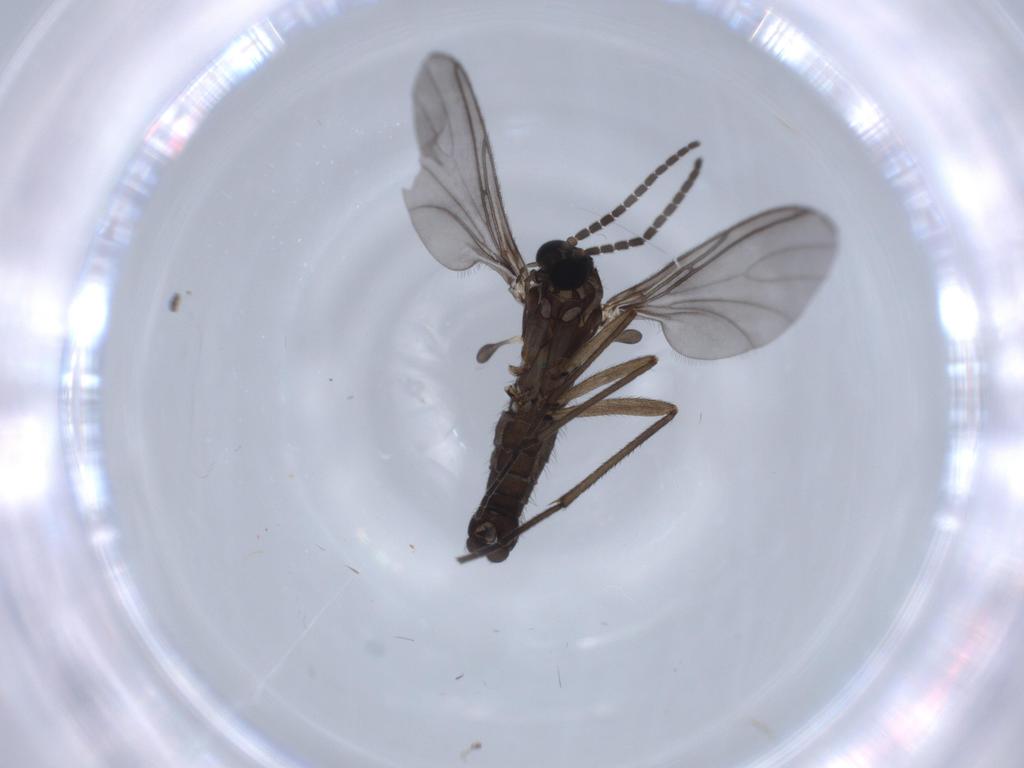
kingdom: Animalia
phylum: Arthropoda
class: Insecta
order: Diptera
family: Sciaridae
